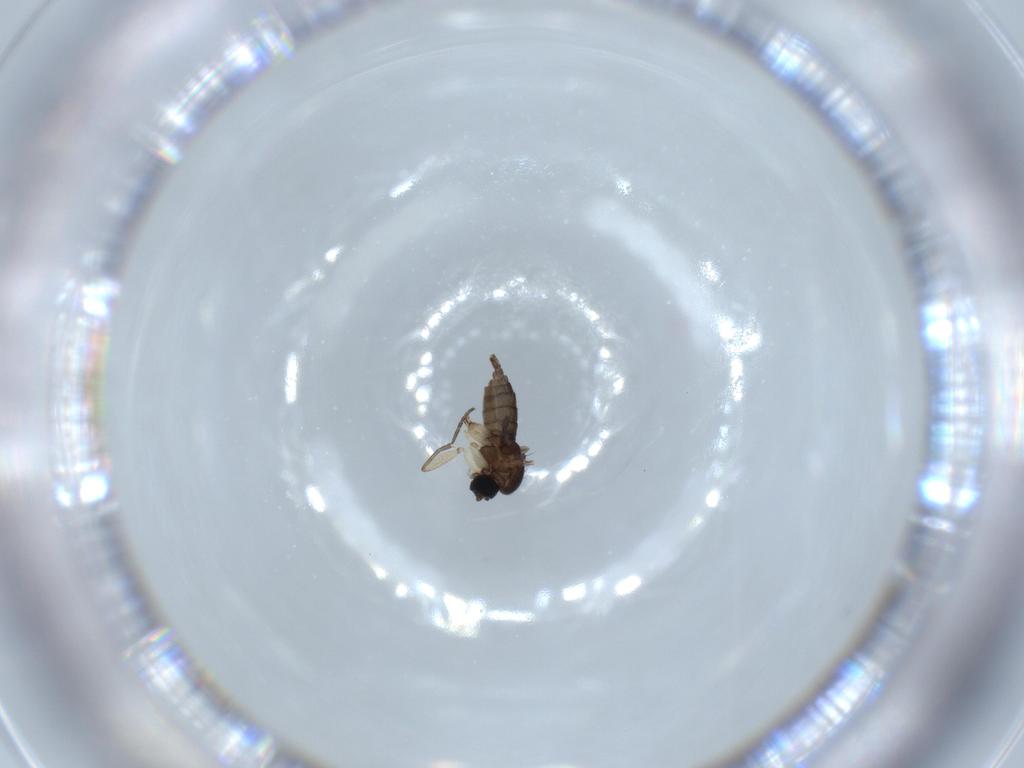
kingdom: Animalia
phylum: Arthropoda
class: Insecta
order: Diptera
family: Sciaridae
